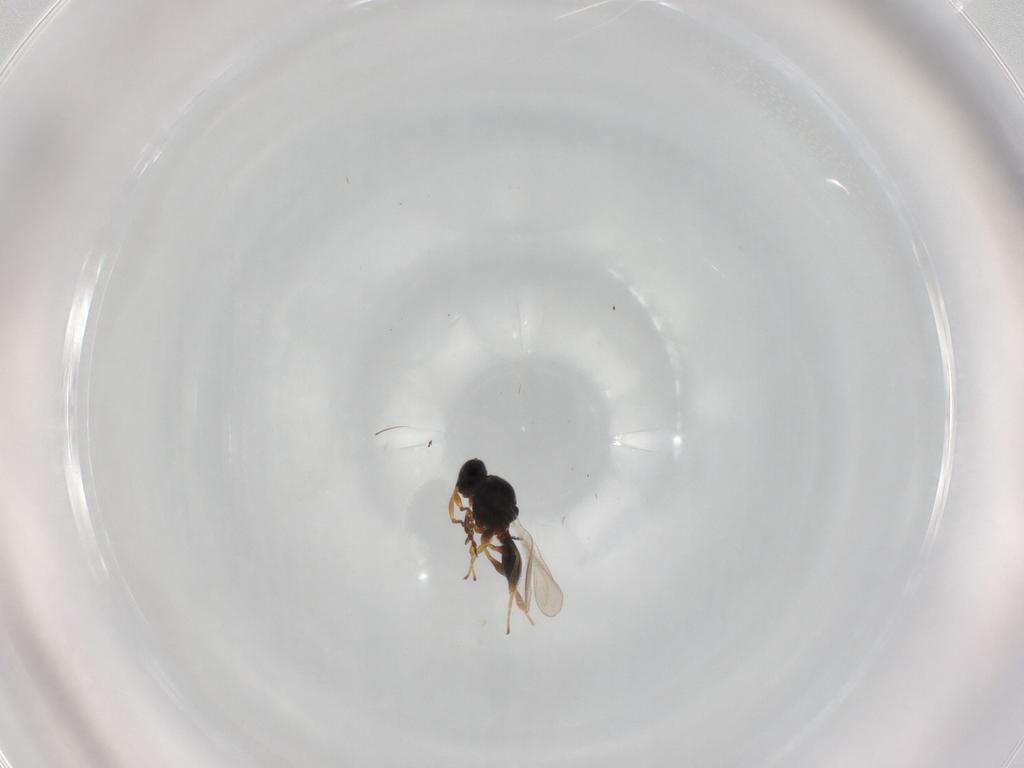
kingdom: Animalia
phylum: Arthropoda
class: Insecta
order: Hymenoptera
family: Platygastridae
